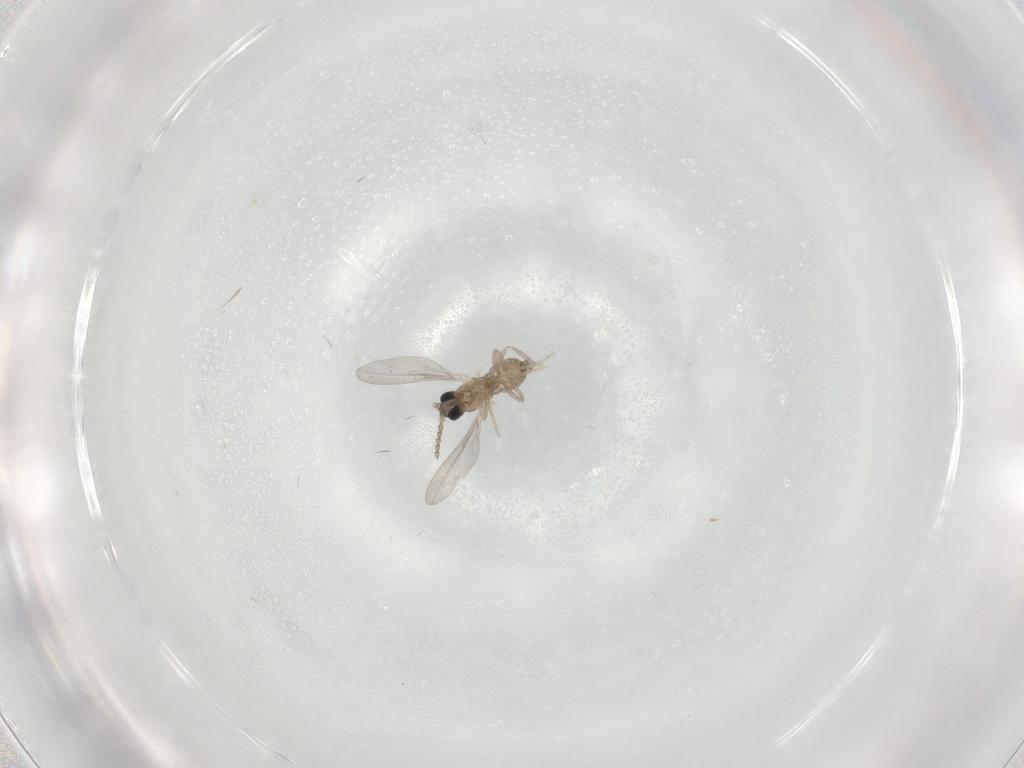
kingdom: Animalia
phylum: Arthropoda
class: Insecta
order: Diptera
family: Cecidomyiidae
